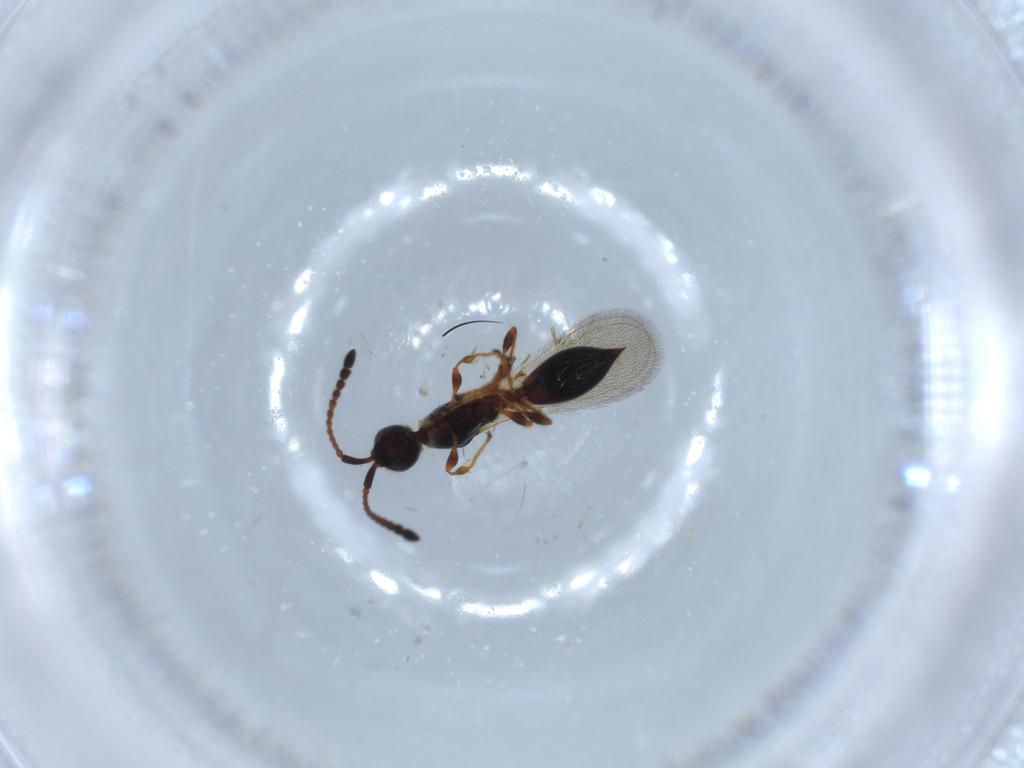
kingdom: Animalia
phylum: Arthropoda
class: Insecta
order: Hymenoptera
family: Diapriidae
